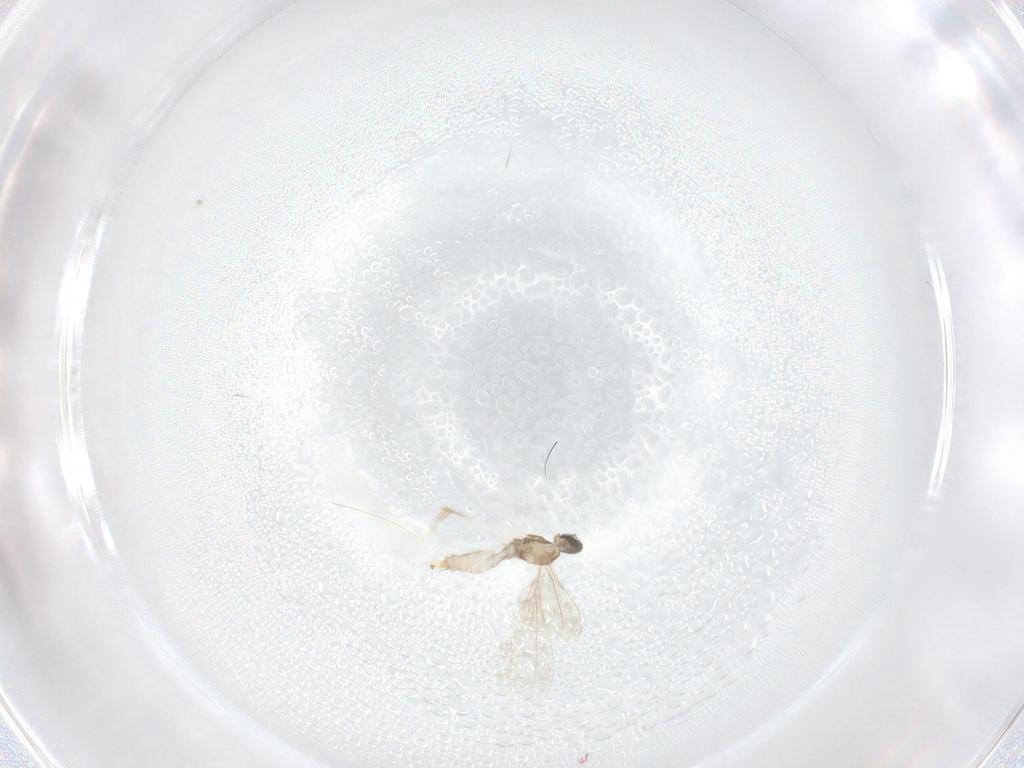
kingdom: Animalia
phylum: Arthropoda
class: Insecta
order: Diptera
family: Cecidomyiidae
